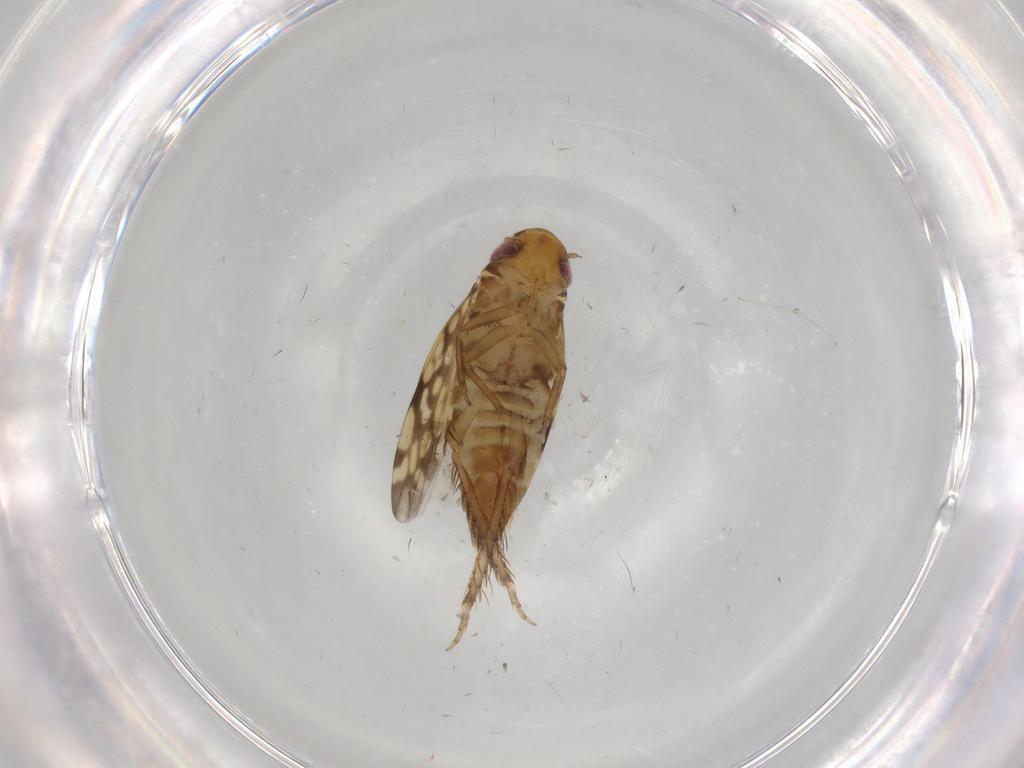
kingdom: Animalia
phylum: Arthropoda
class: Insecta
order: Hemiptera
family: Cicadellidae
